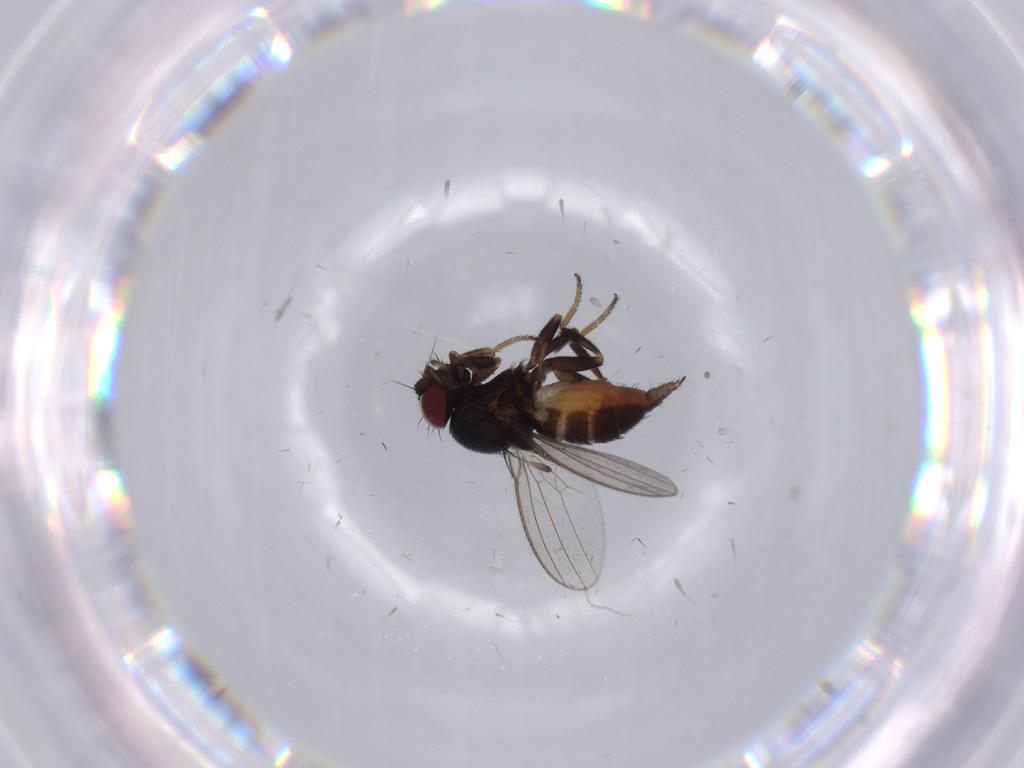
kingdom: Animalia
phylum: Arthropoda
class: Insecta
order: Diptera
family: Milichiidae
